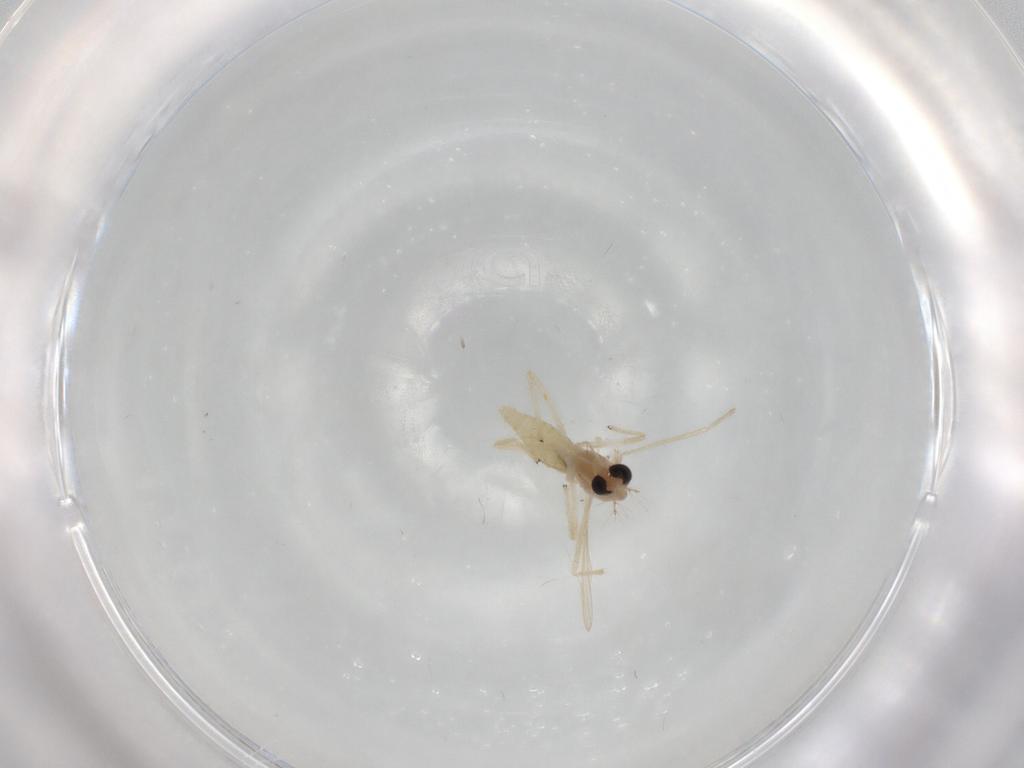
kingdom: Animalia
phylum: Arthropoda
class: Insecta
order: Diptera
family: Chironomidae
